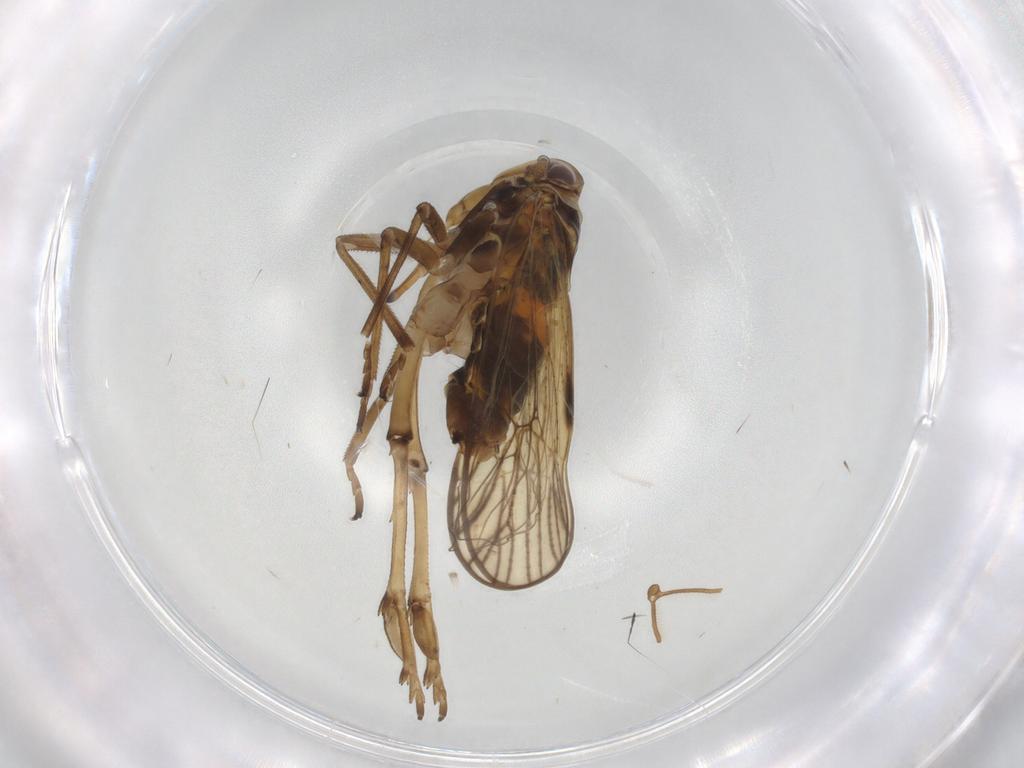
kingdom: Animalia
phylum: Arthropoda
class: Insecta
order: Hemiptera
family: Delphacidae
